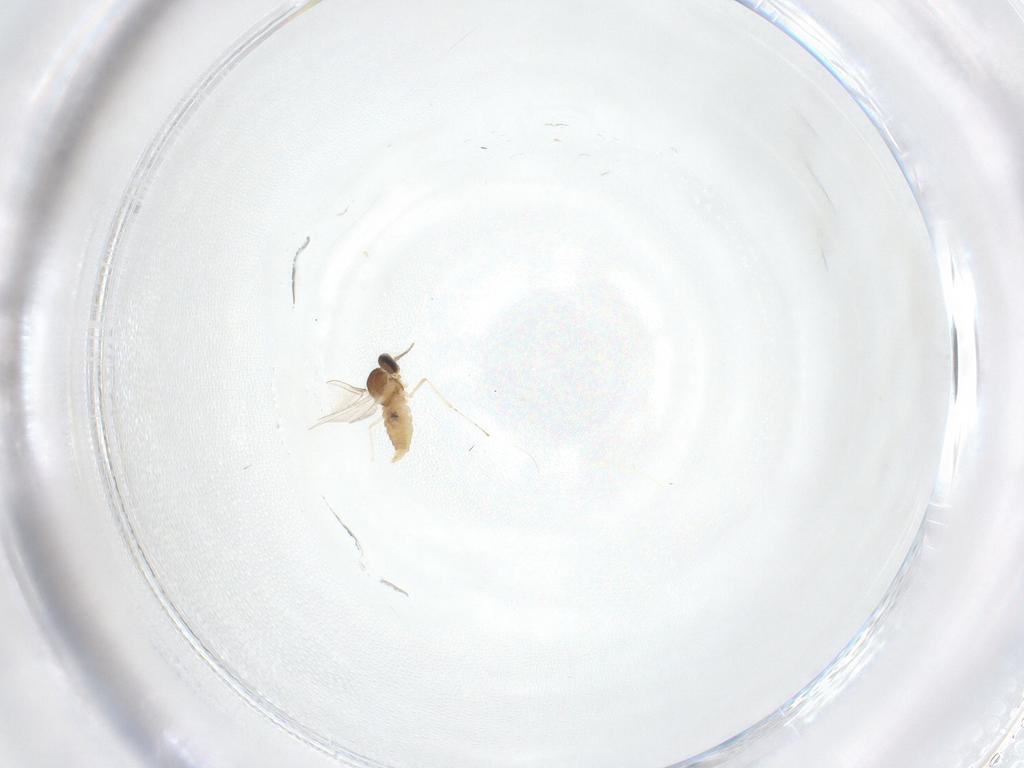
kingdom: Animalia
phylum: Arthropoda
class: Insecta
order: Diptera
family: Cecidomyiidae
